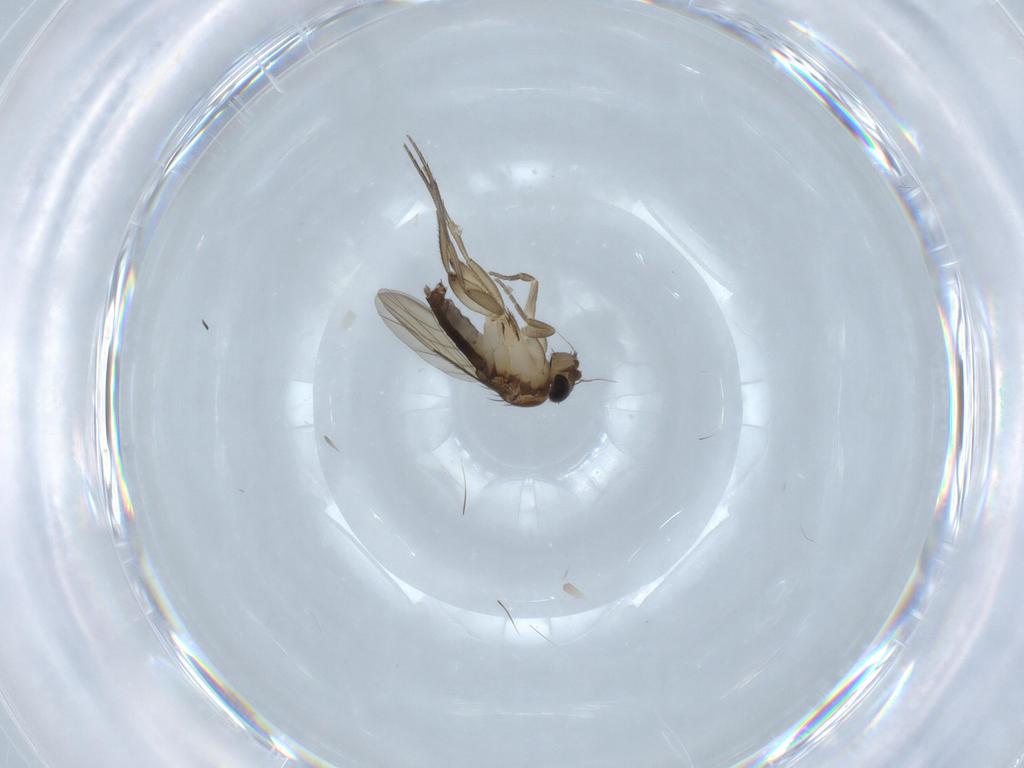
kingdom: Animalia
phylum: Arthropoda
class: Insecta
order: Diptera
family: Phoridae
